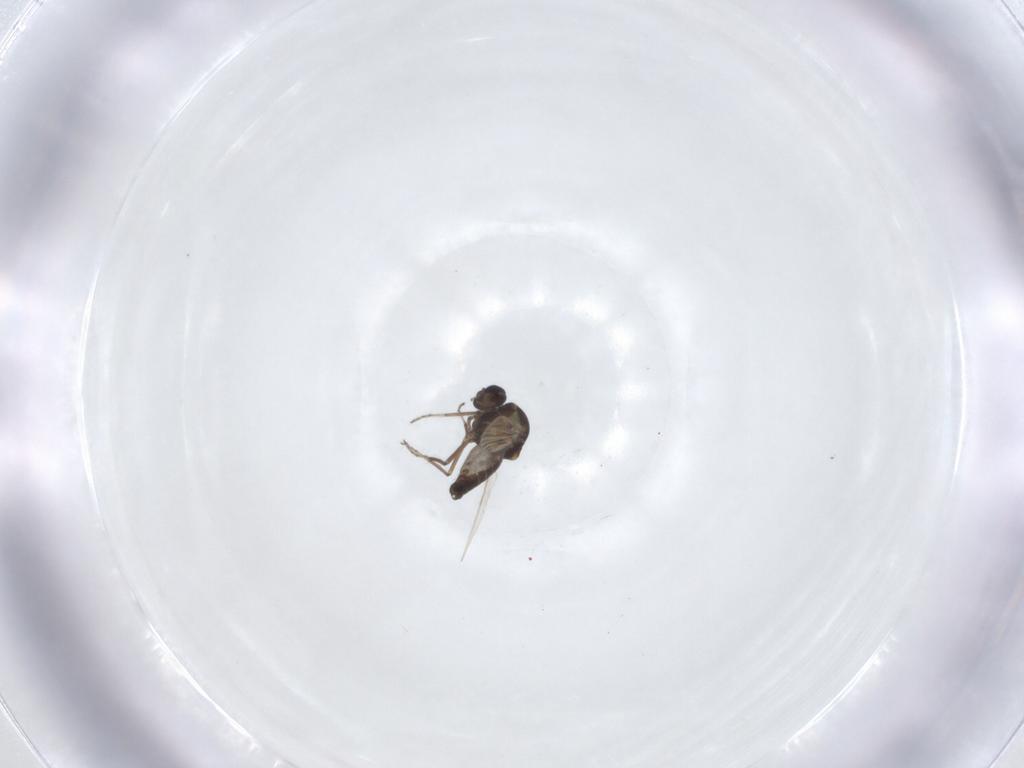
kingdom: Animalia
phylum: Arthropoda
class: Insecta
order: Diptera
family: Ceratopogonidae
